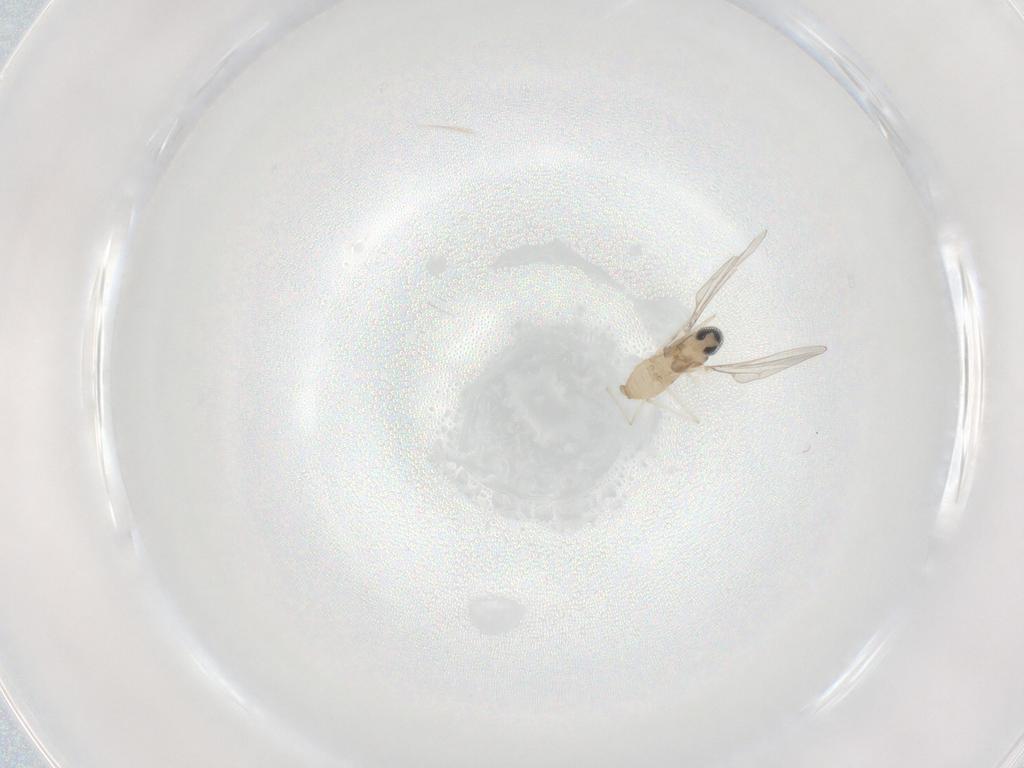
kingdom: Animalia
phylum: Arthropoda
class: Insecta
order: Diptera
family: Cecidomyiidae
